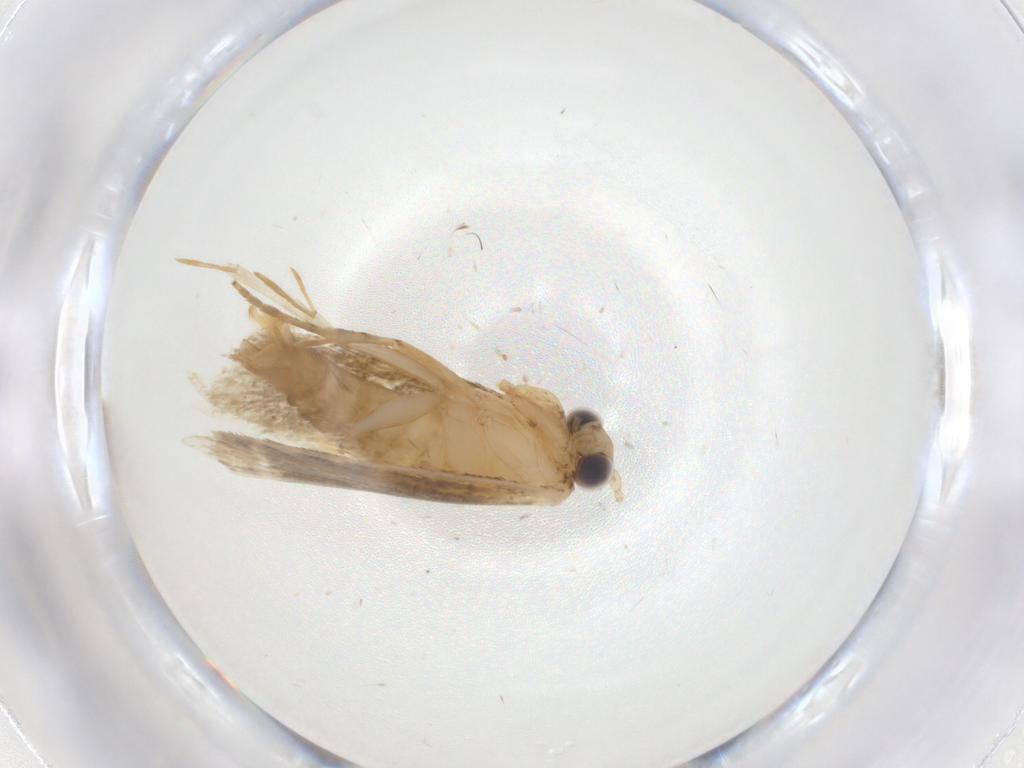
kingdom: Animalia
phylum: Arthropoda
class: Insecta
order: Lepidoptera
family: Tineidae
